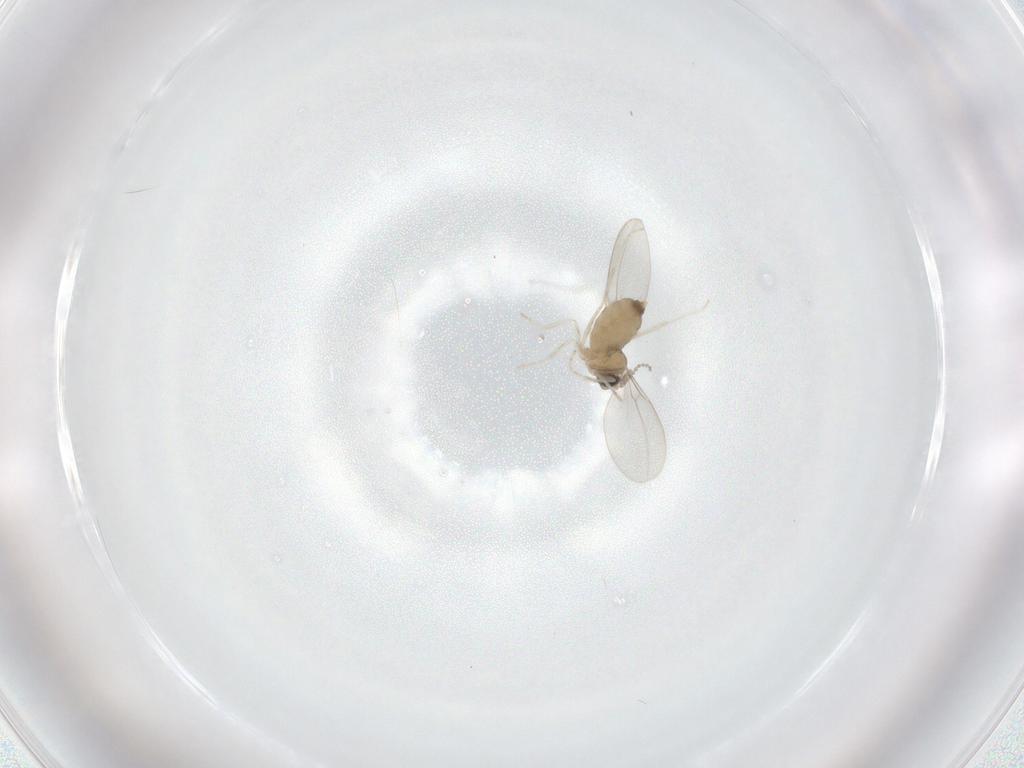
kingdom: Animalia
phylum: Arthropoda
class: Insecta
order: Diptera
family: Cecidomyiidae
